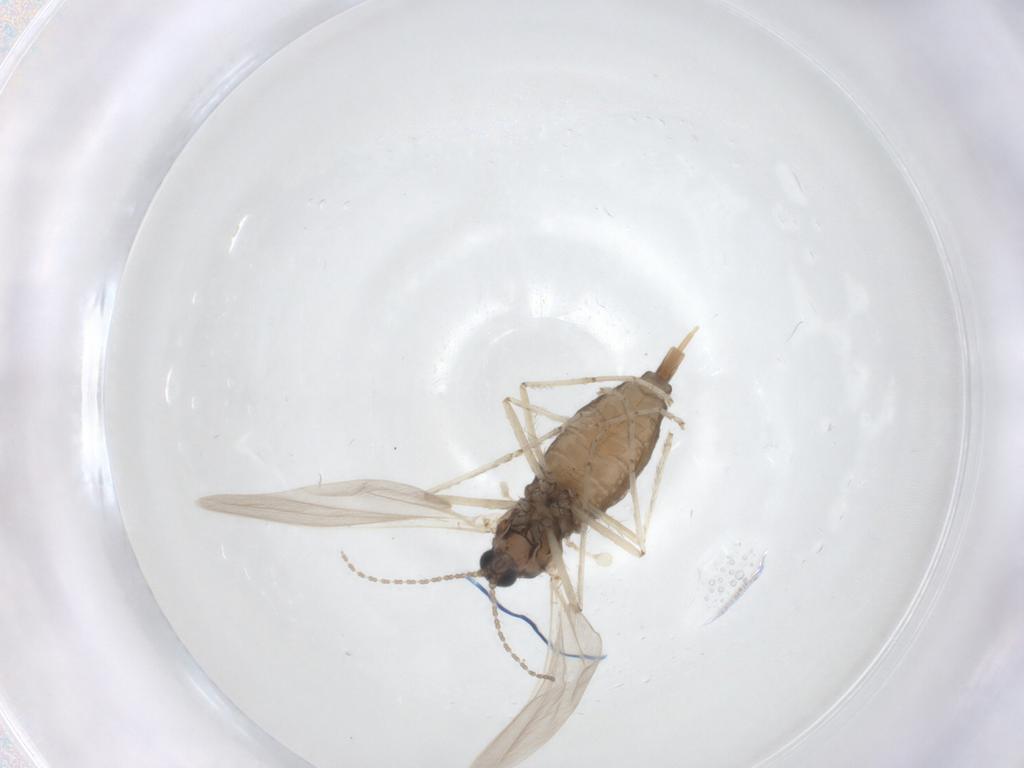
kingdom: Animalia
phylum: Arthropoda
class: Insecta
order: Diptera
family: Cecidomyiidae
